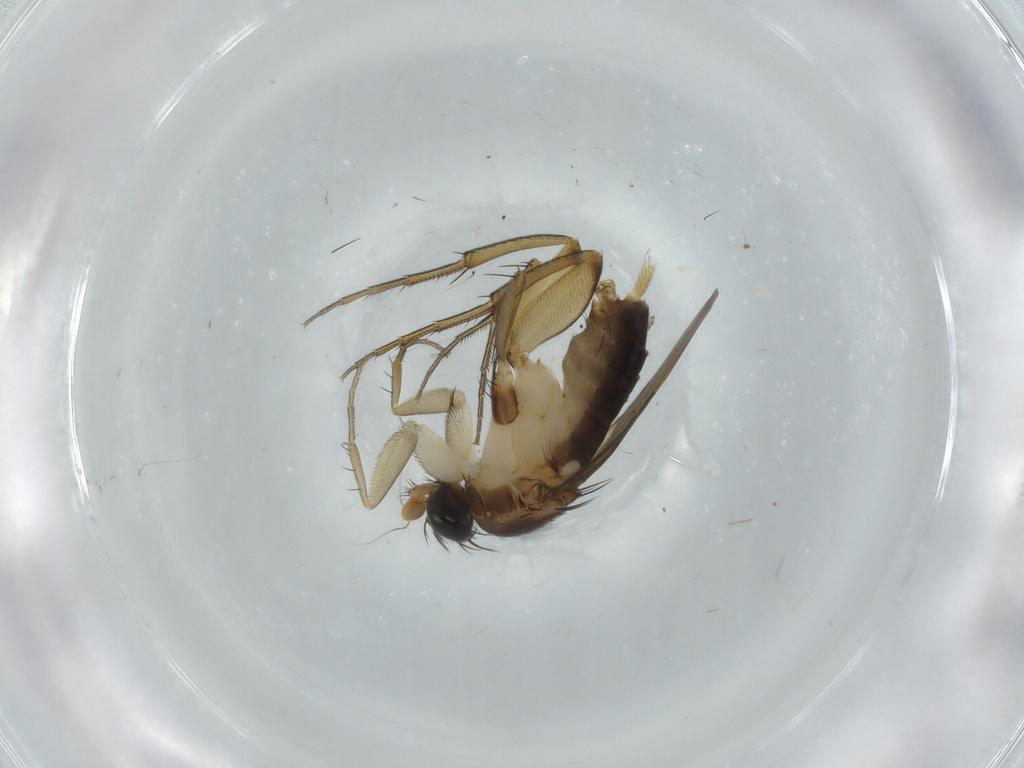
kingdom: Animalia
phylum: Arthropoda
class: Insecta
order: Diptera
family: Phoridae
